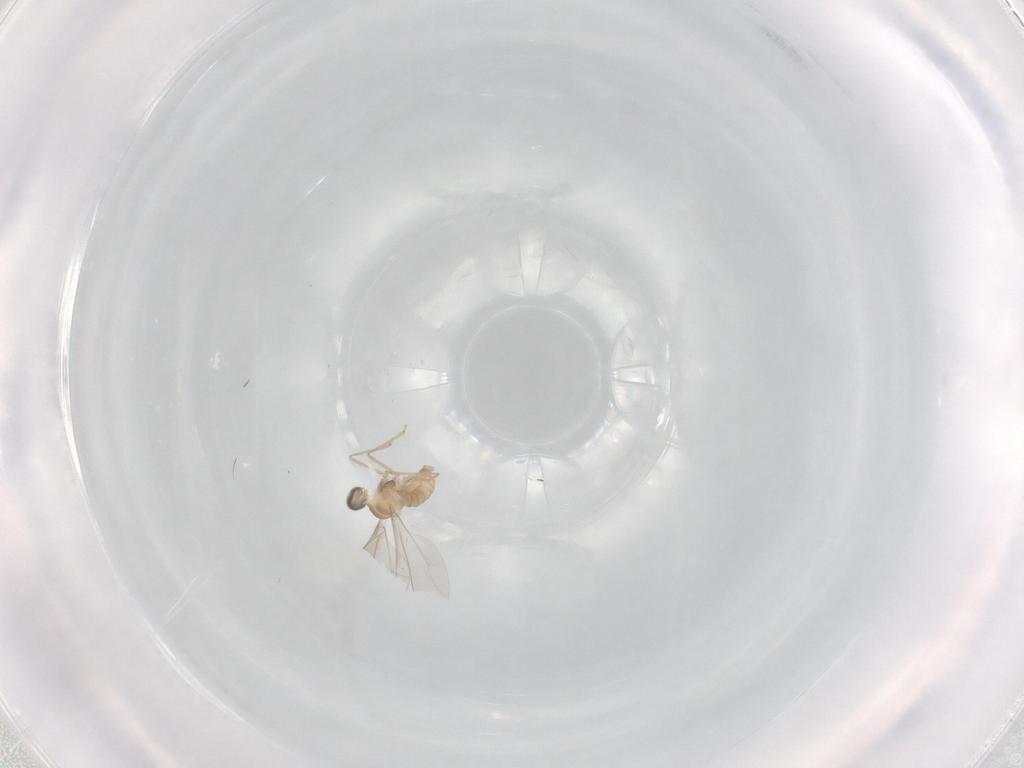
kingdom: Animalia
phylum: Arthropoda
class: Insecta
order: Diptera
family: Cecidomyiidae
